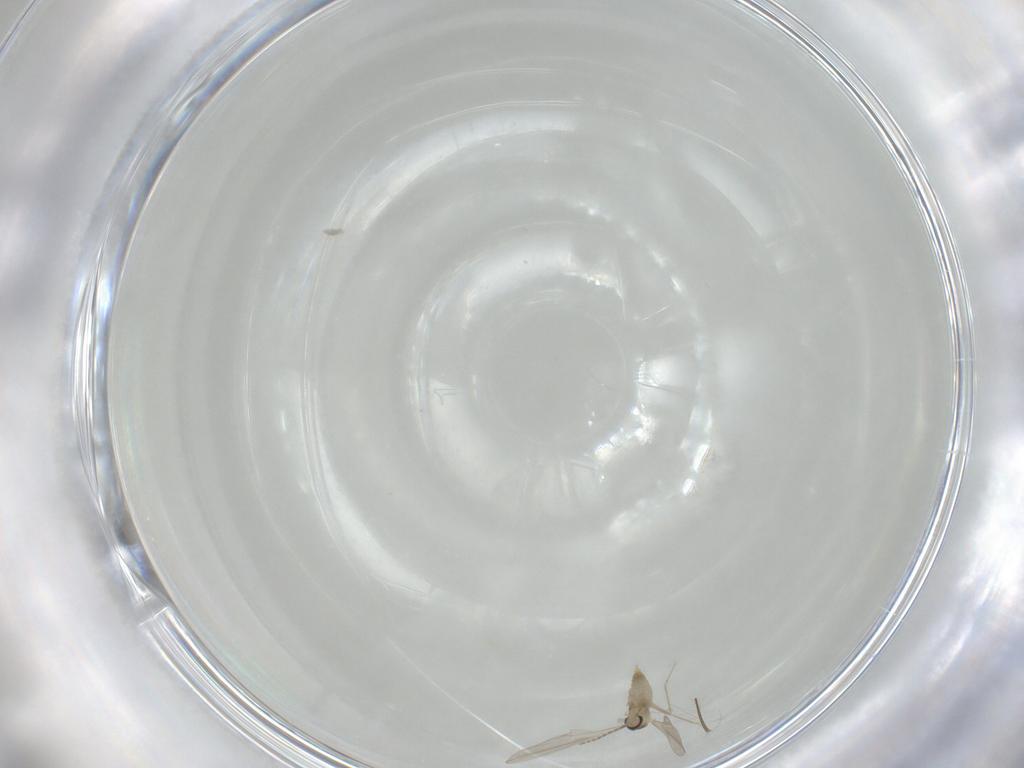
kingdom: Animalia
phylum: Arthropoda
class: Insecta
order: Diptera
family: Cecidomyiidae
